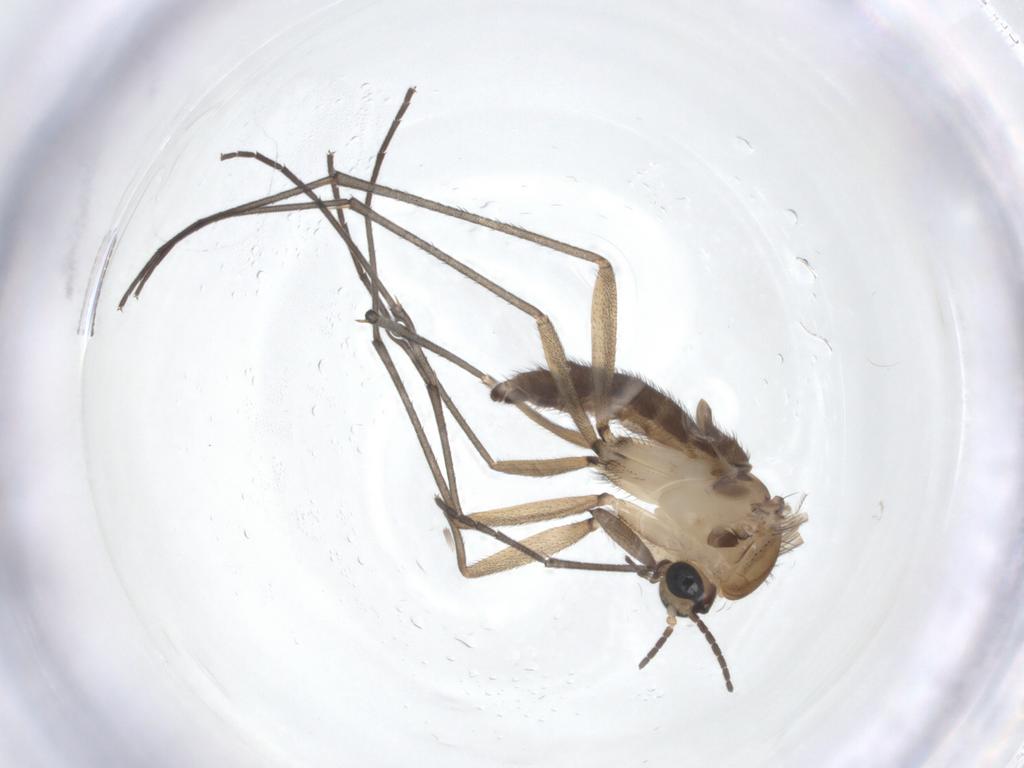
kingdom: Animalia
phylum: Arthropoda
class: Insecta
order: Diptera
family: Sciaridae
